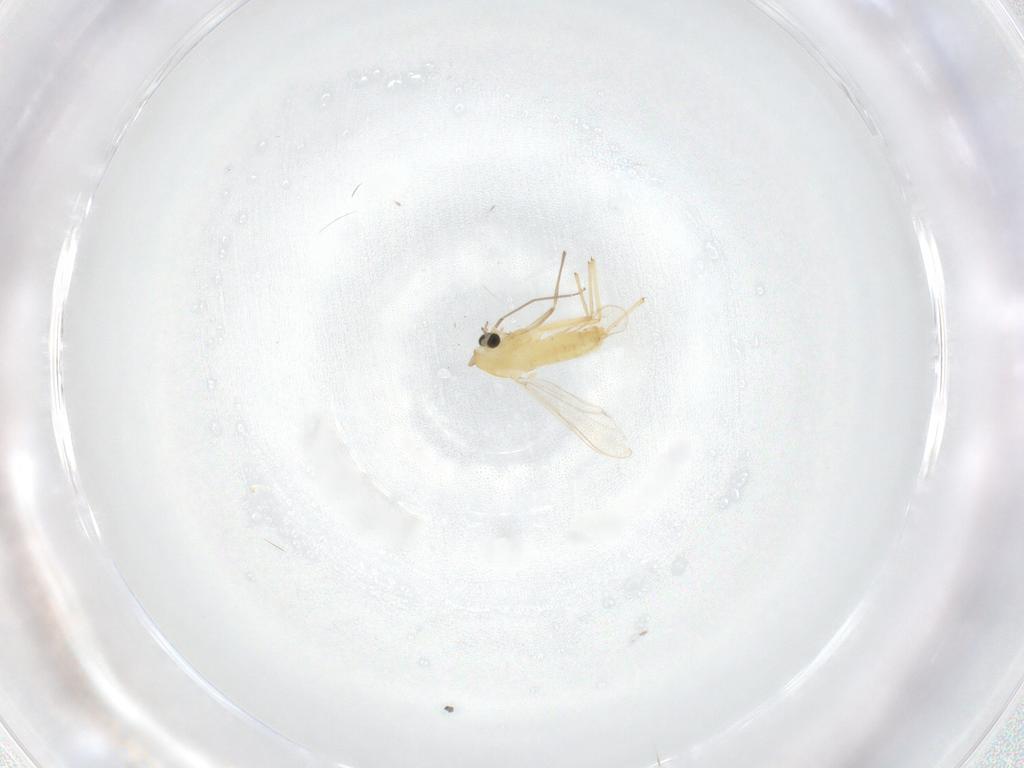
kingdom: Animalia
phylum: Arthropoda
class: Insecta
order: Diptera
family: Chironomidae
